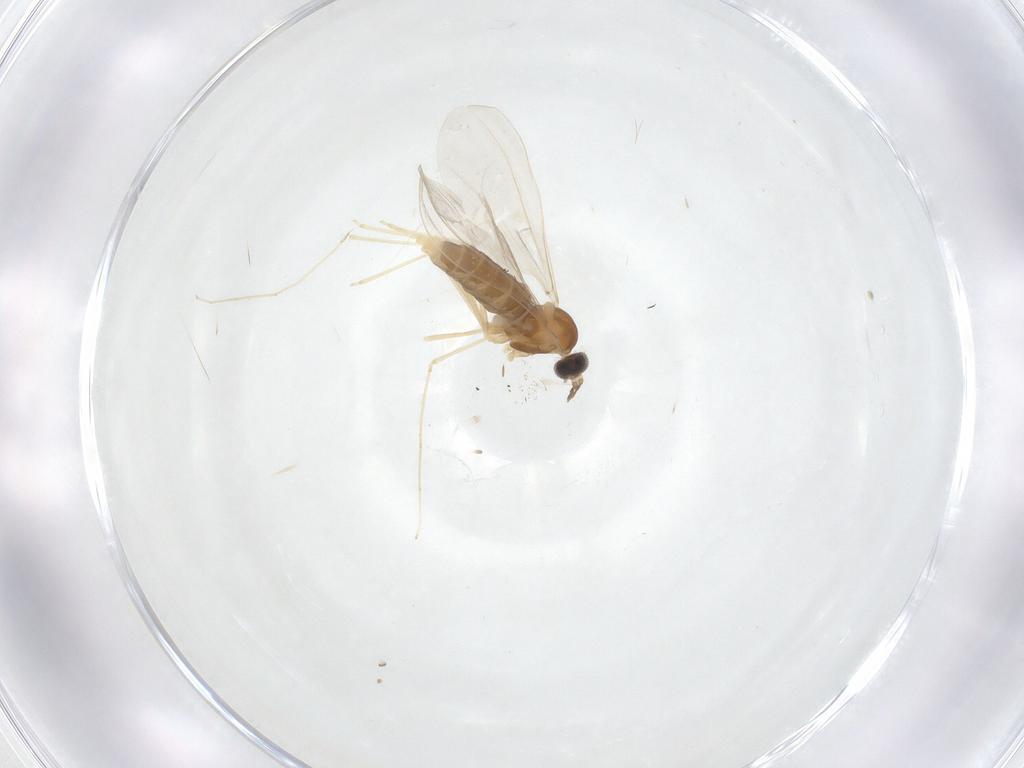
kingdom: Animalia
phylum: Arthropoda
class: Insecta
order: Diptera
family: Cecidomyiidae
